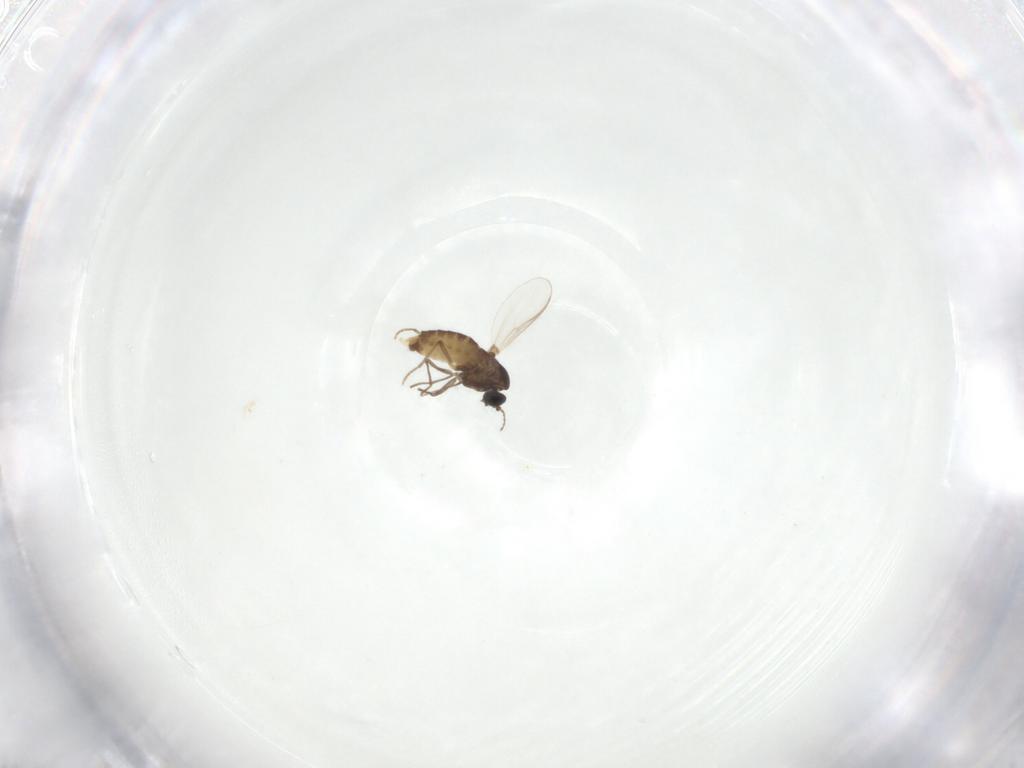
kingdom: Animalia
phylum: Arthropoda
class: Insecta
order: Diptera
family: Chironomidae
